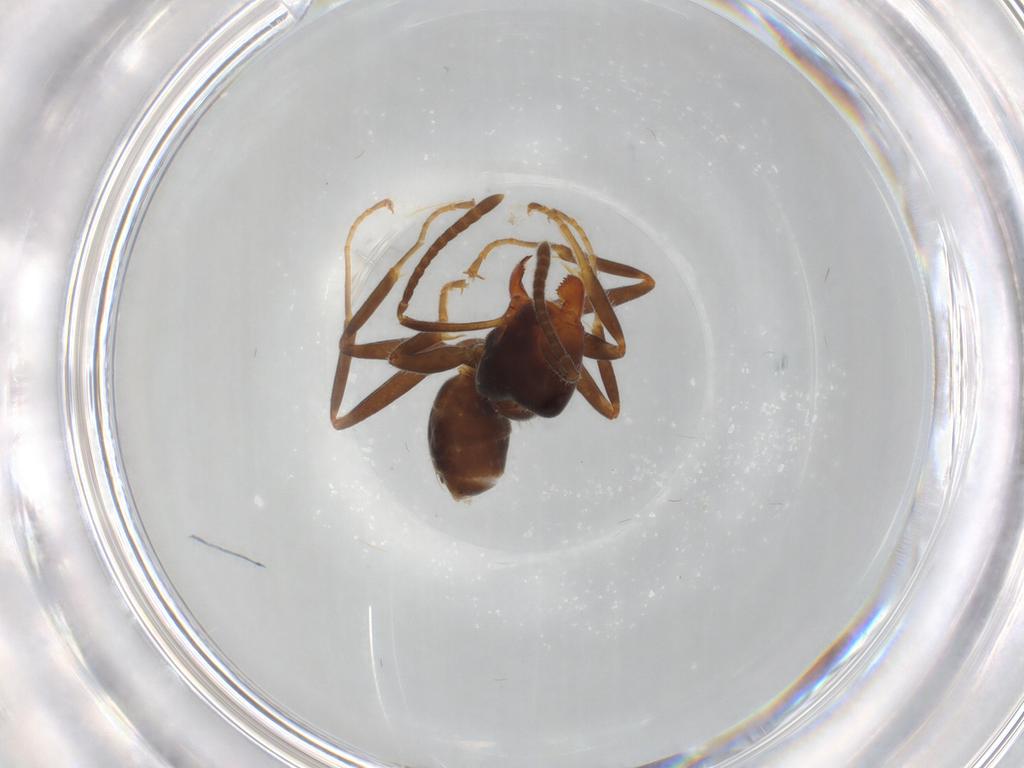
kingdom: Animalia
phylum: Arthropoda
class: Insecta
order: Hymenoptera
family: Formicidae
